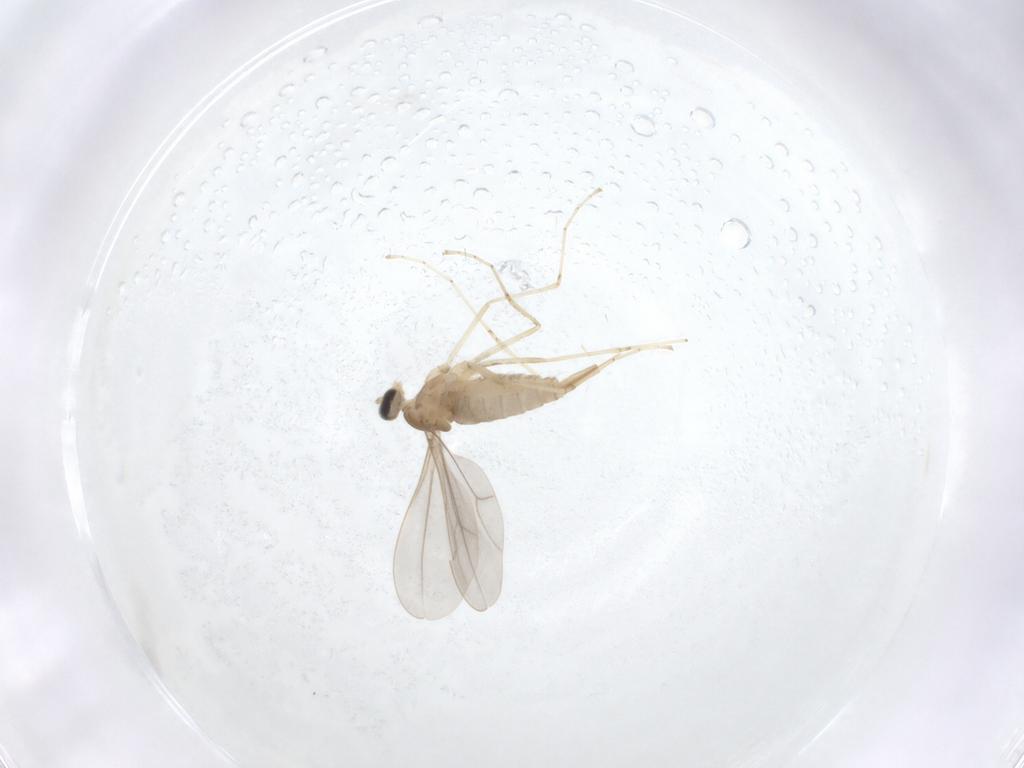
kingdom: Animalia
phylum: Arthropoda
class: Insecta
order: Diptera
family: Cecidomyiidae
